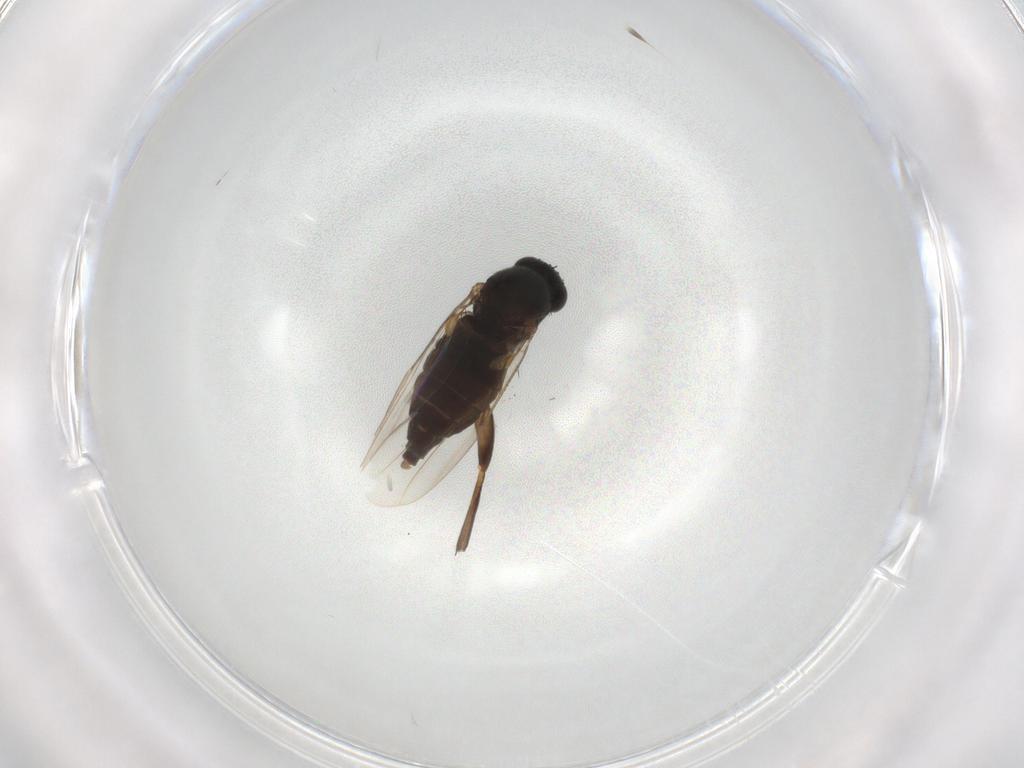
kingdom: Animalia
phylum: Arthropoda
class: Insecta
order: Diptera
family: Phoridae
